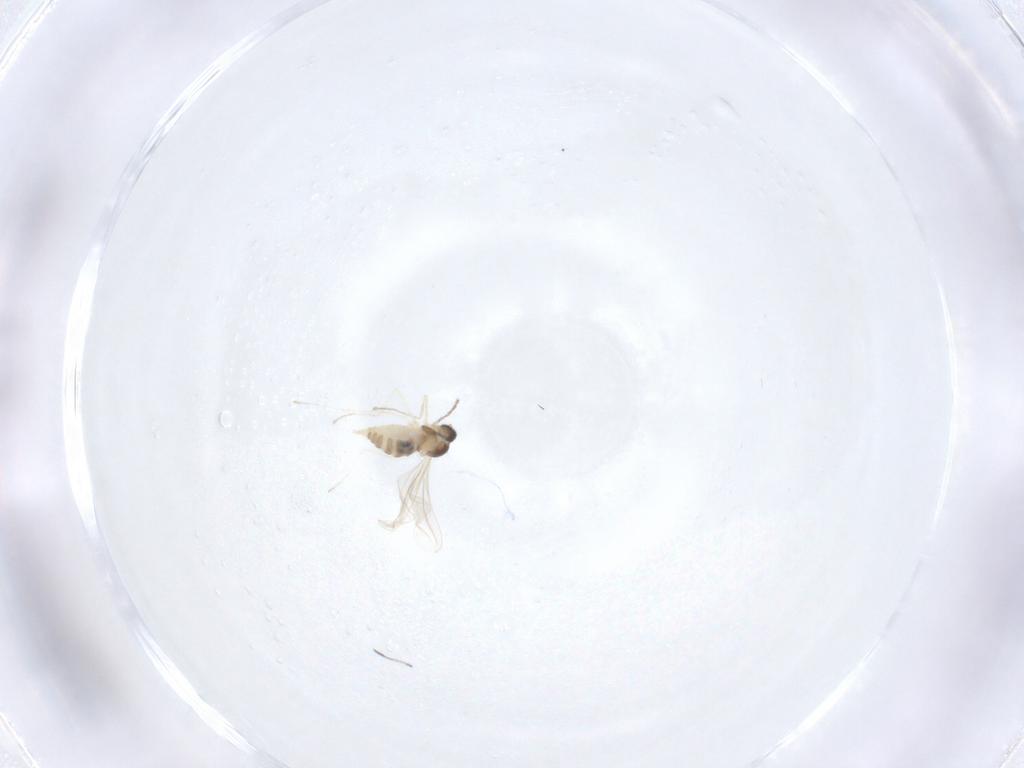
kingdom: Animalia
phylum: Arthropoda
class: Insecta
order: Diptera
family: Cecidomyiidae
